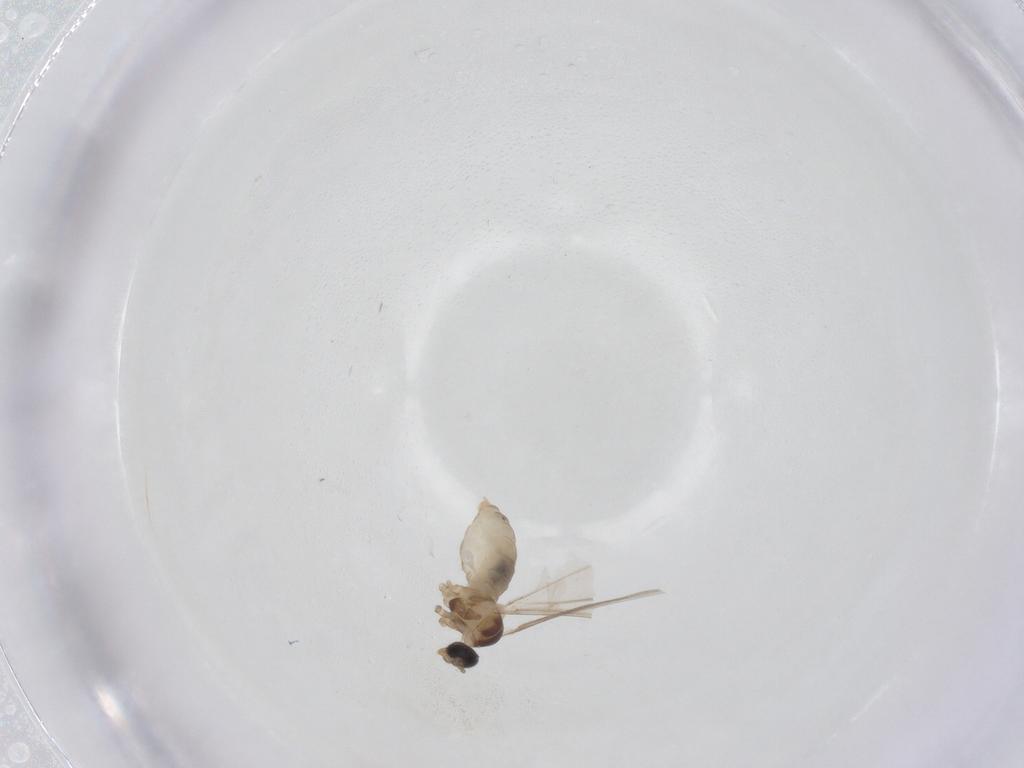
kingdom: Animalia
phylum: Arthropoda
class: Insecta
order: Diptera
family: Cecidomyiidae
